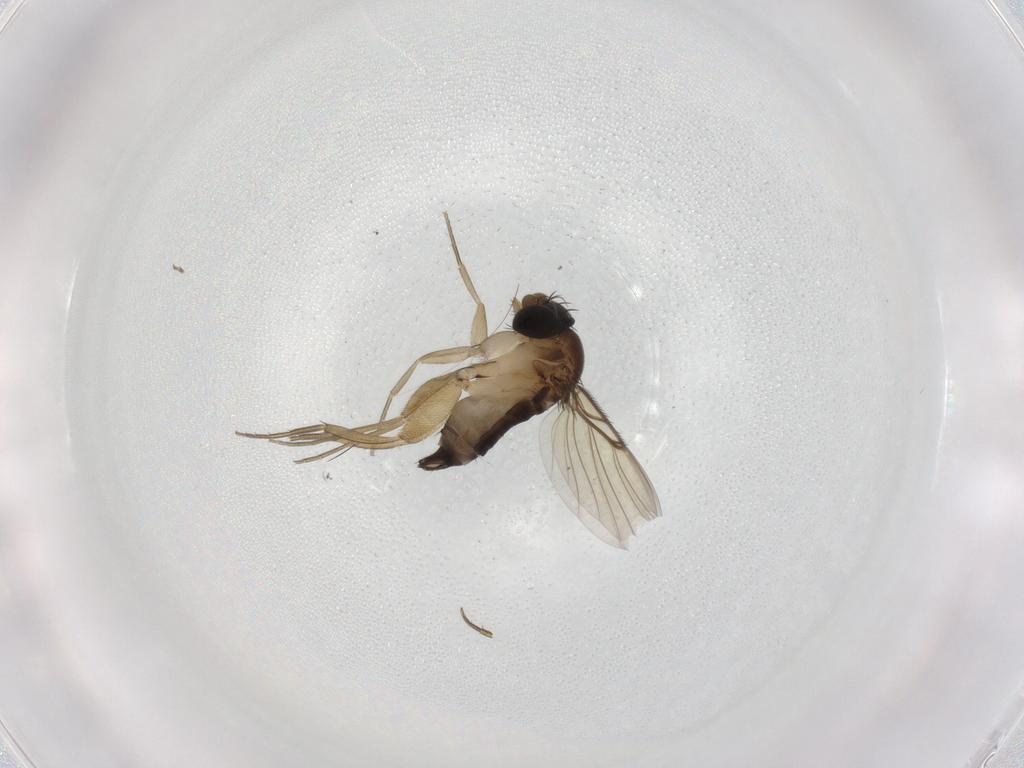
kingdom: Animalia
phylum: Arthropoda
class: Insecta
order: Diptera
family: Phoridae
